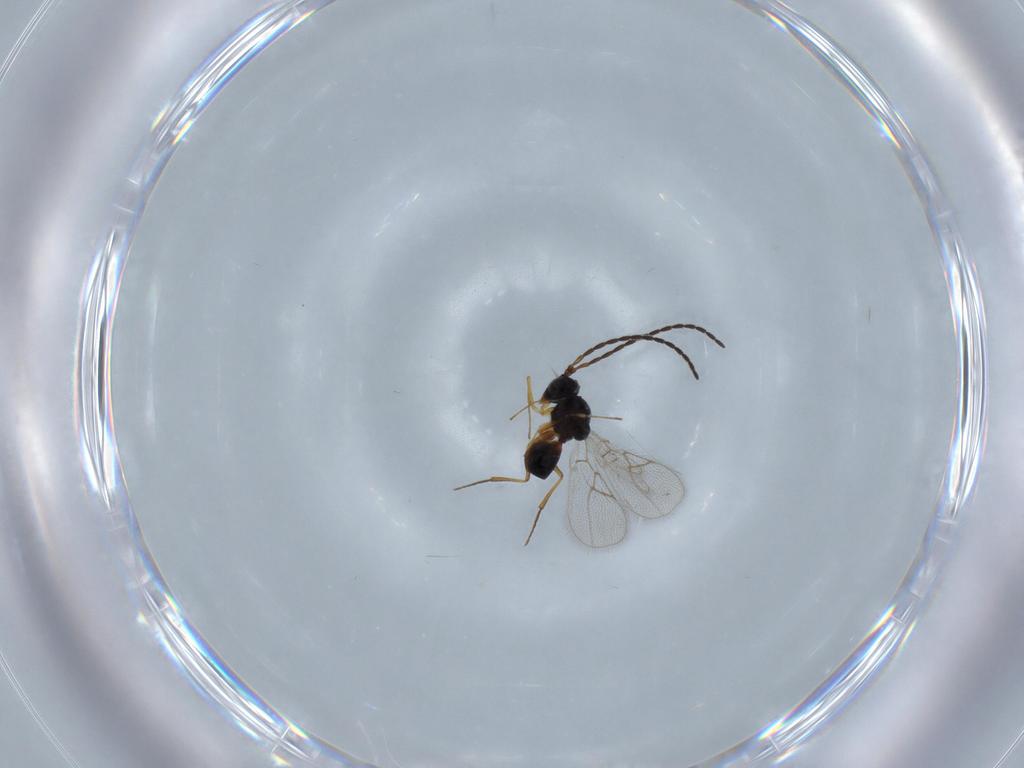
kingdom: Animalia
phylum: Arthropoda
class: Insecta
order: Hymenoptera
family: Figitidae
